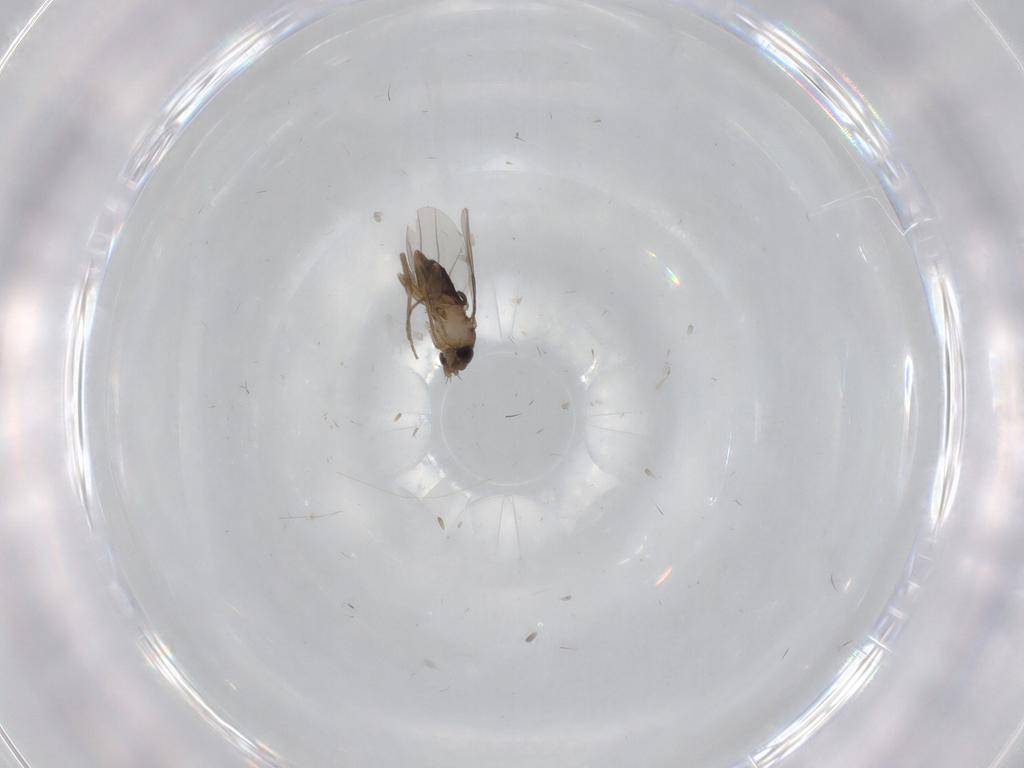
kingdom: Animalia
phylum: Arthropoda
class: Insecta
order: Diptera
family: Phoridae
